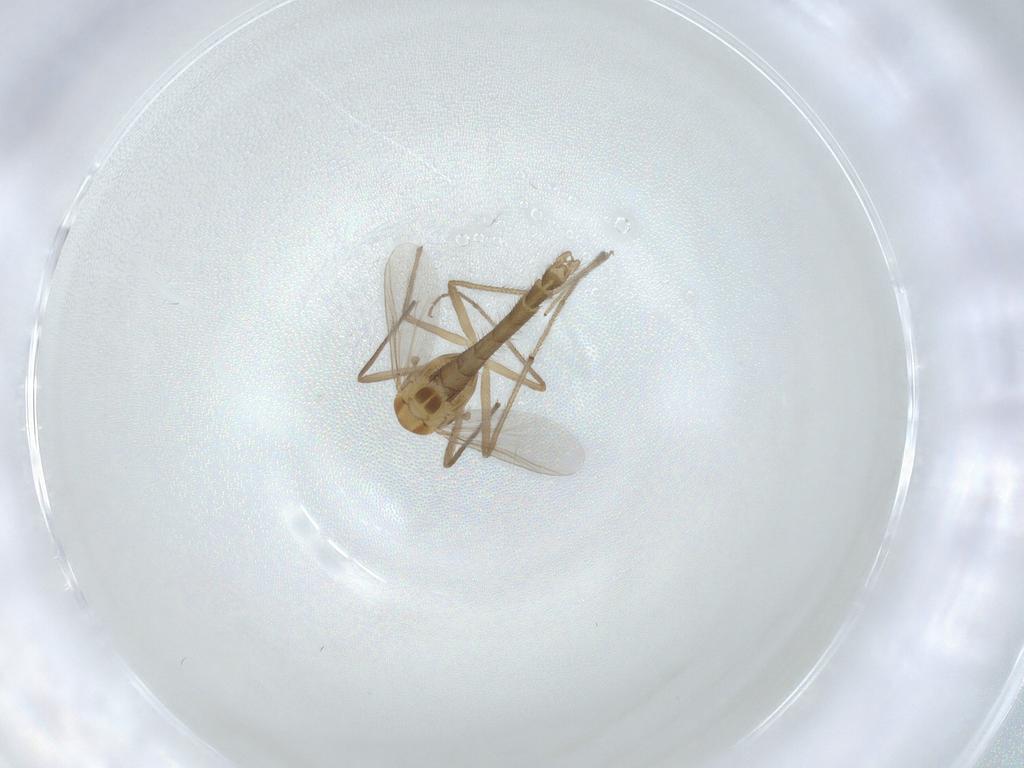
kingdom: Animalia
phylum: Arthropoda
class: Insecta
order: Diptera
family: Chironomidae
